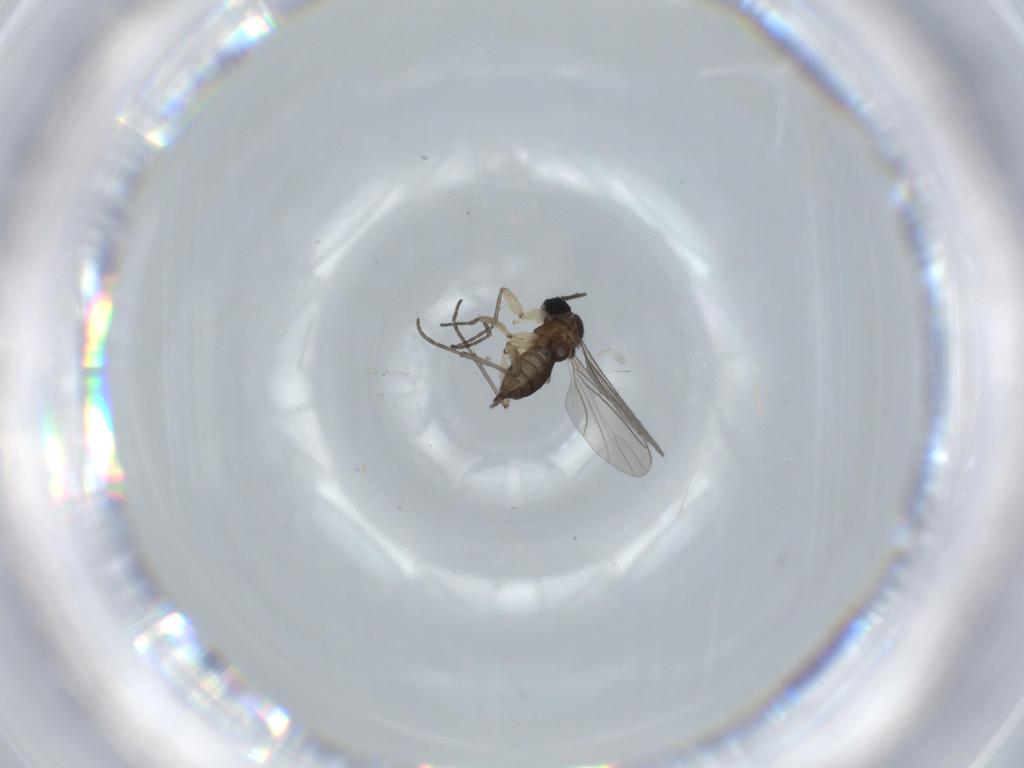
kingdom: Animalia
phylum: Arthropoda
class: Insecta
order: Diptera
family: Sciaridae
